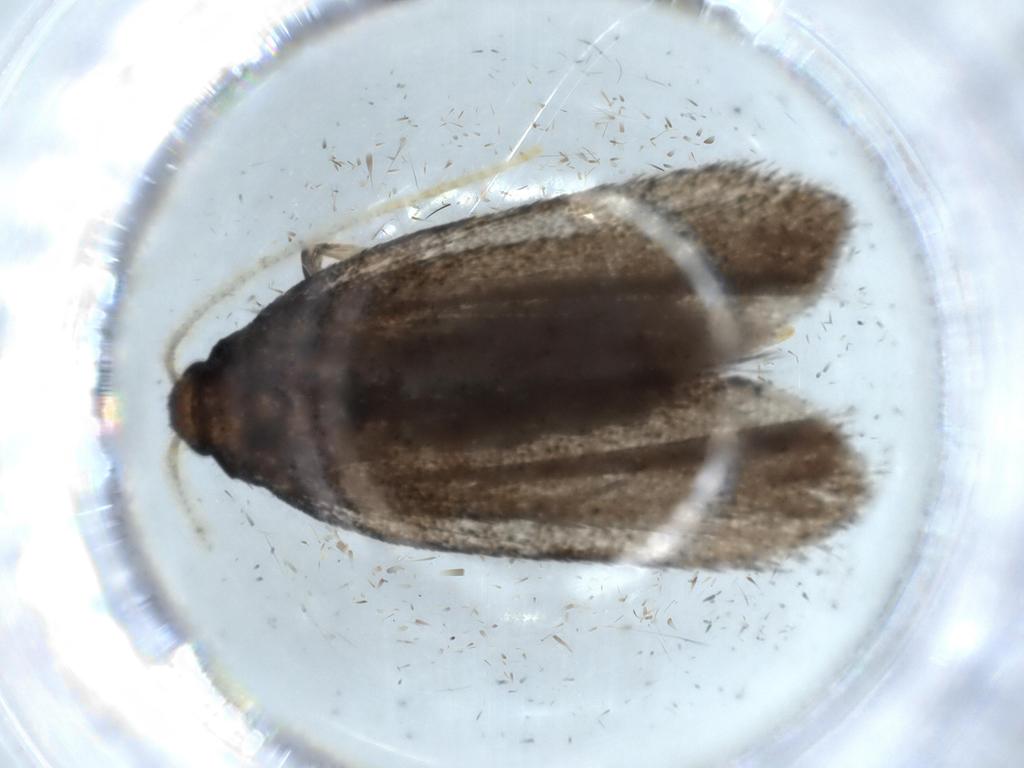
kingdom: Animalia
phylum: Arthropoda
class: Insecta
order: Lepidoptera
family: Lecithoceridae
